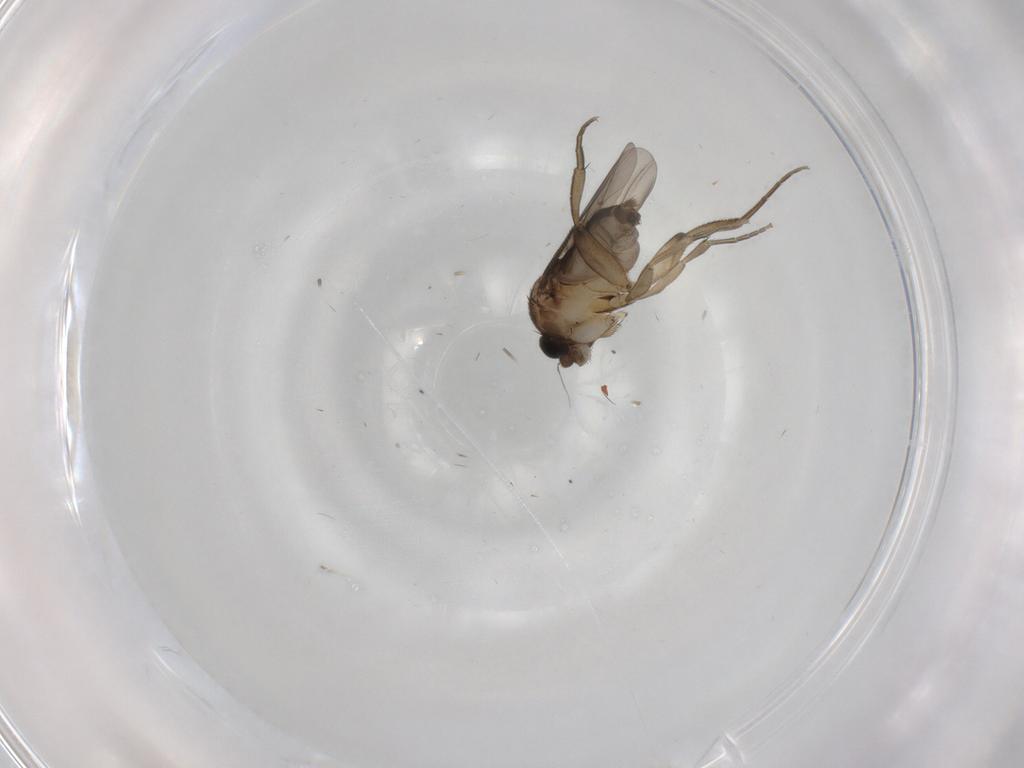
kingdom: Animalia
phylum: Arthropoda
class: Insecta
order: Diptera
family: Phoridae
